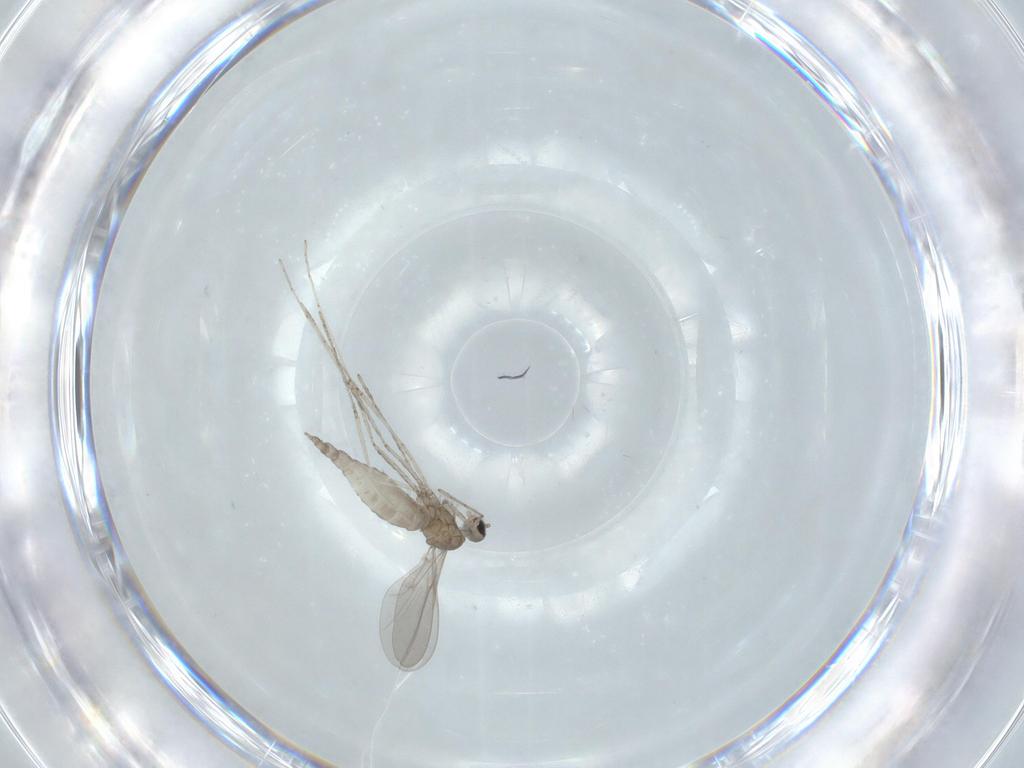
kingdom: Animalia
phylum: Arthropoda
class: Insecta
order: Diptera
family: Cecidomyiidae
